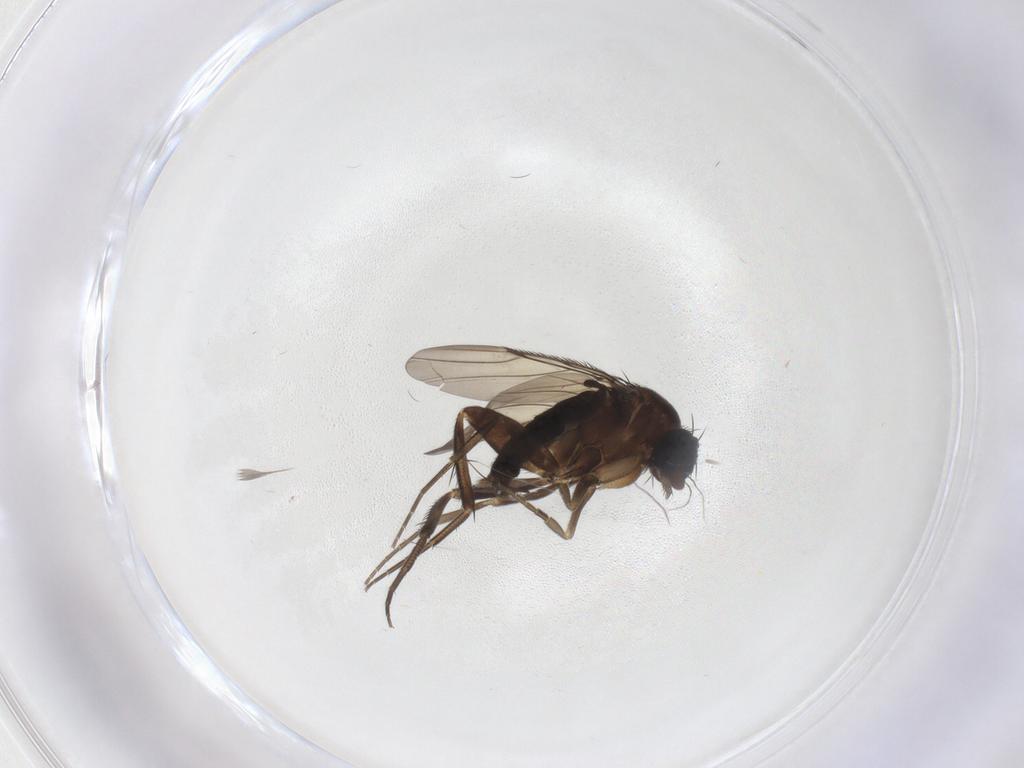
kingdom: Animalia
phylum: Arthropoda
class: Insecta
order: Diptera
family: Phoridae
